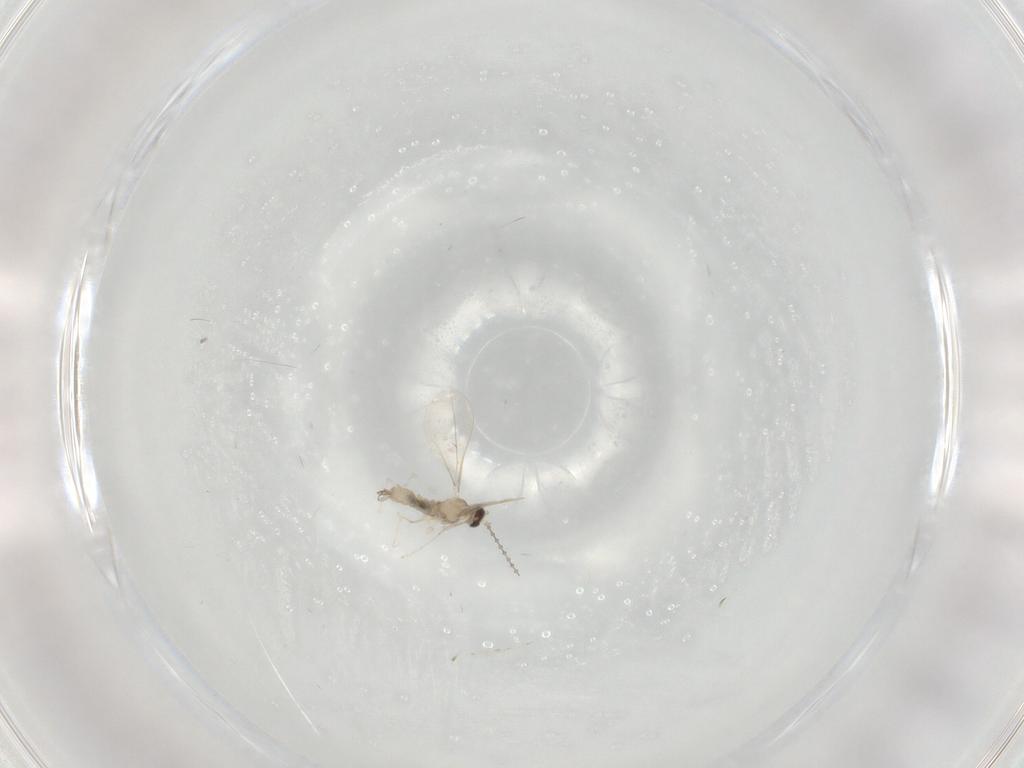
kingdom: Animalia
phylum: Arthropoda
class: Insecta
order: Diptera
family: Cecidomyiidae
